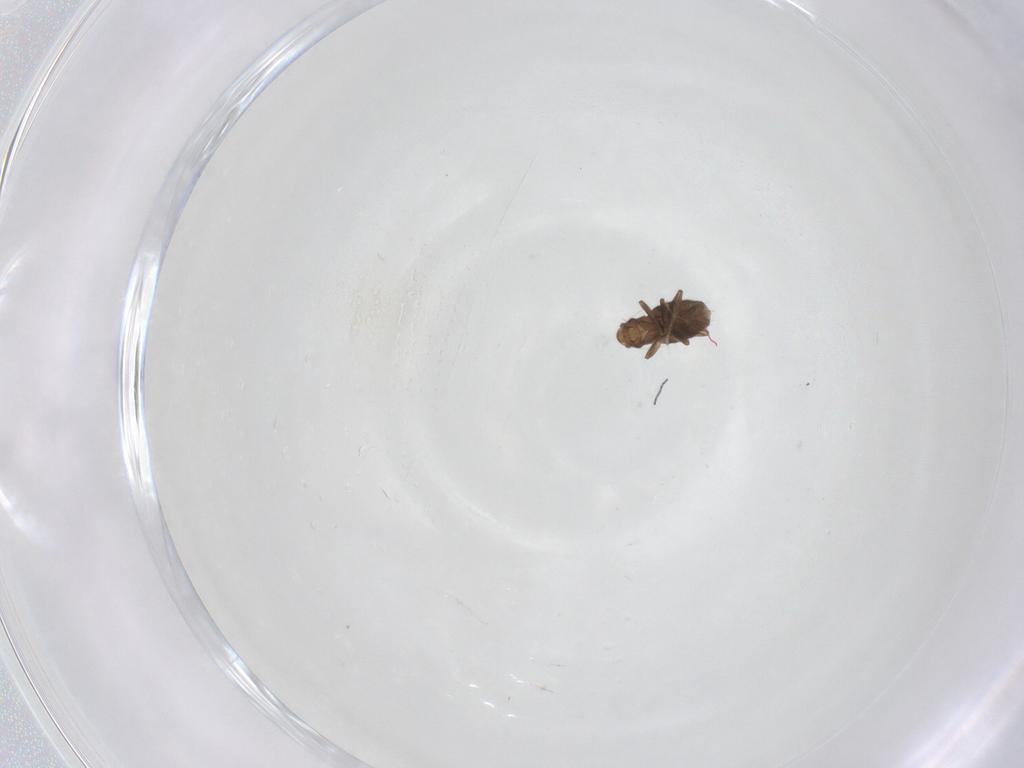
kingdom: Animalia
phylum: Arthropoda
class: Insecta
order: Diptera
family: Phoridae
